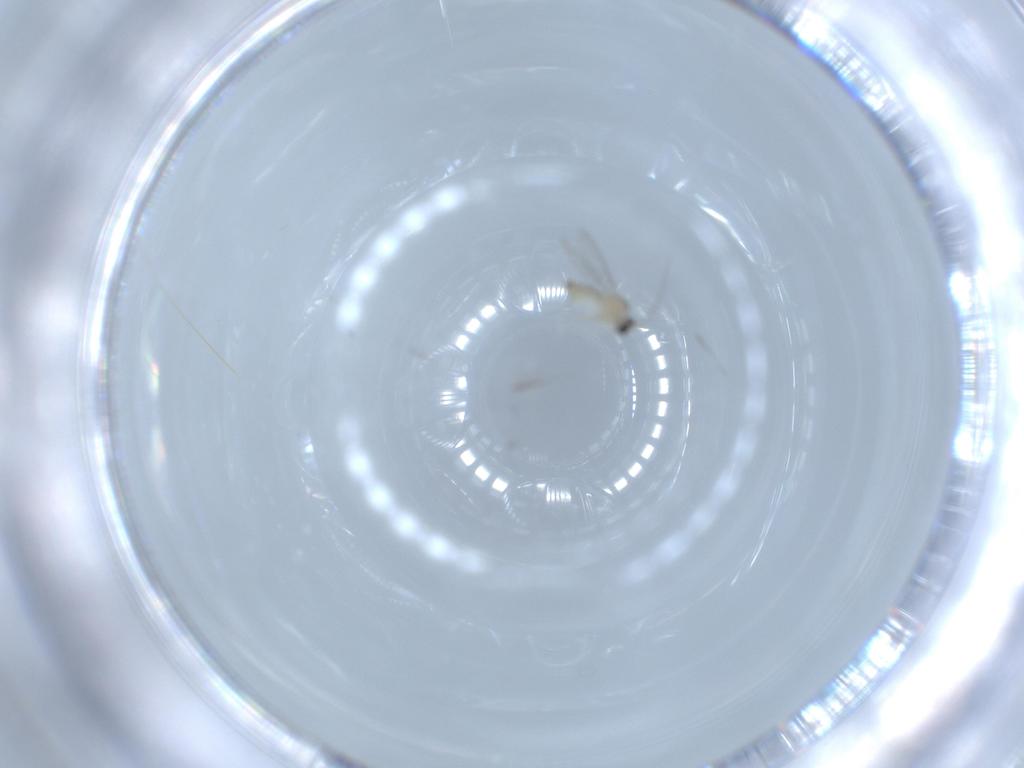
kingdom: Animalia
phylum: Arthropoda
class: Insecta
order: Diptera
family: Cecidomyiidae
